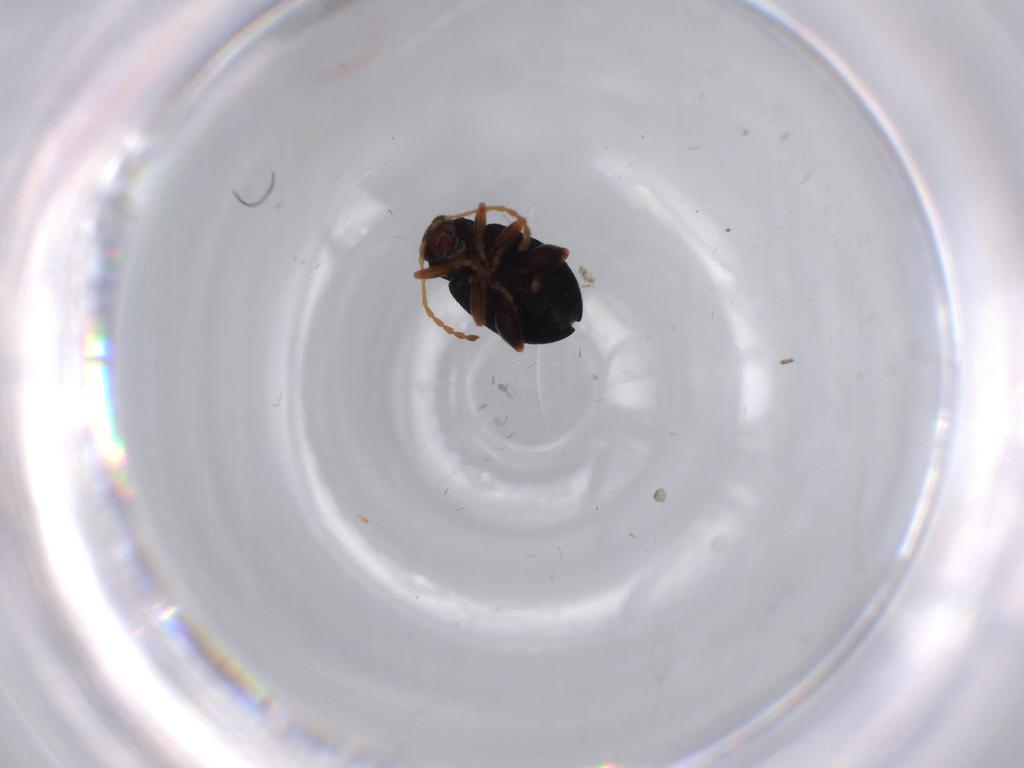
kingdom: Animalia
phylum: Arthropoda
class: Insecta
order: Coleoptera
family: Chrysomelidae
